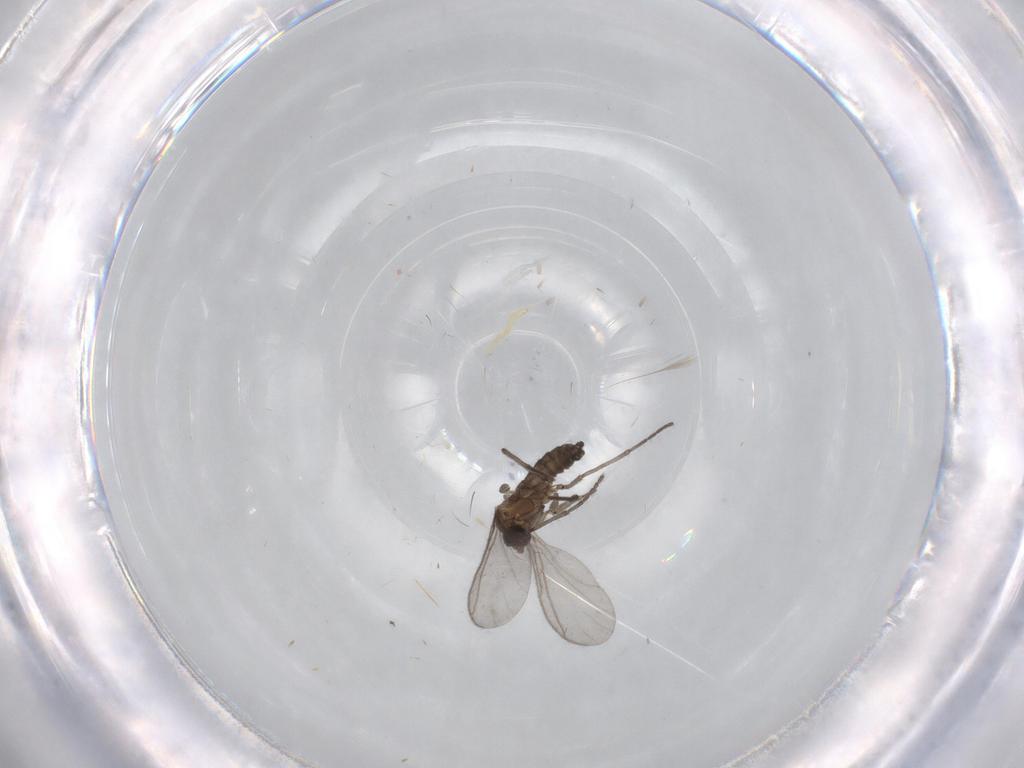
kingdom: Animalia
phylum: Arthropoda
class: Insecta
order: Diptera
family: Sciaridae
